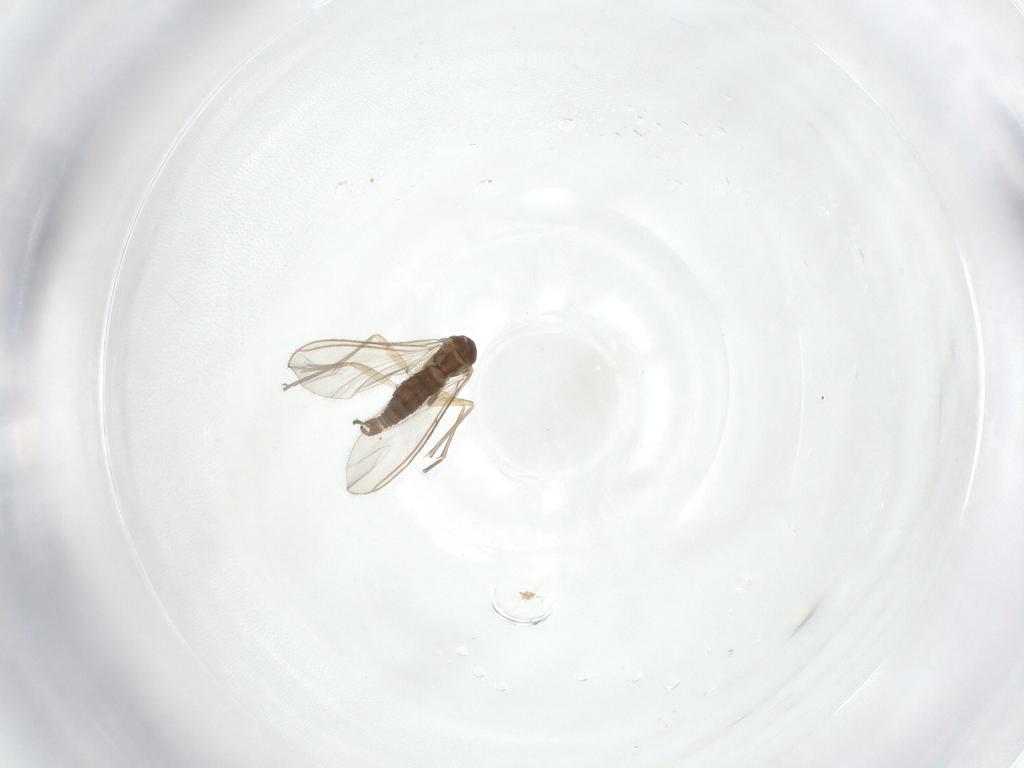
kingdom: Animalia
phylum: Arthropoda
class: Insecta
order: Diptera
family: Sciaridae
